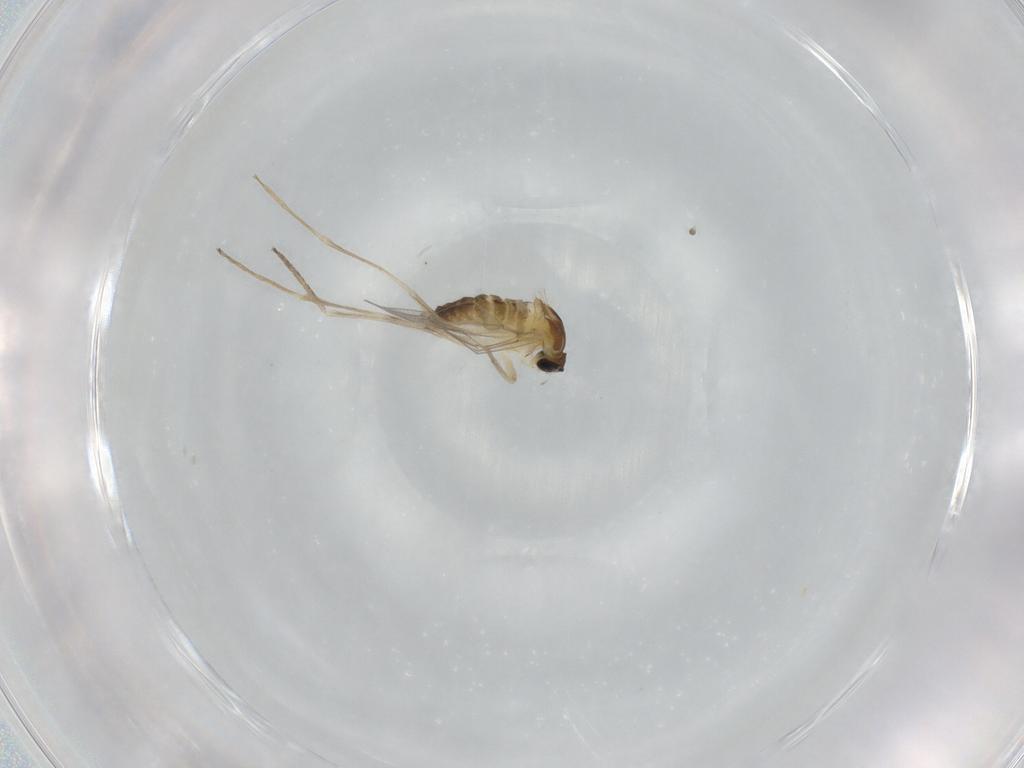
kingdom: Animalia
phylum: Arthropoda
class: Insecta
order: Diptera
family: Cecidomyiidae
